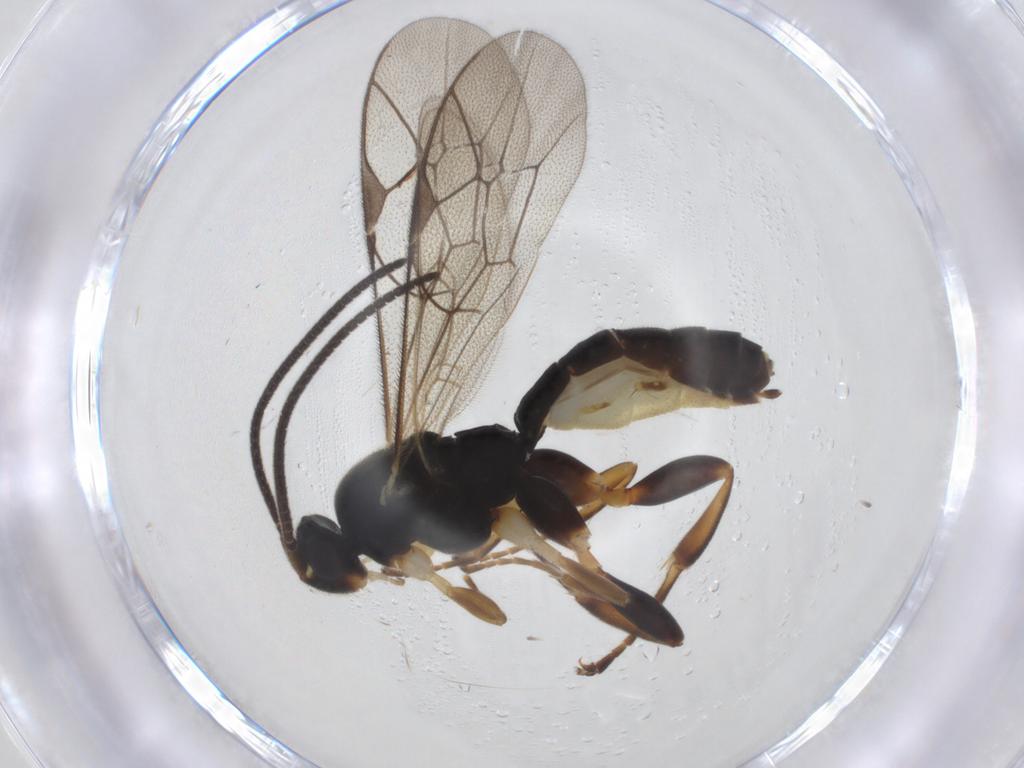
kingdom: Animalia
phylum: Arthropoda
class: Insecta
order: Hymenoptera
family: Ichneumonidae
